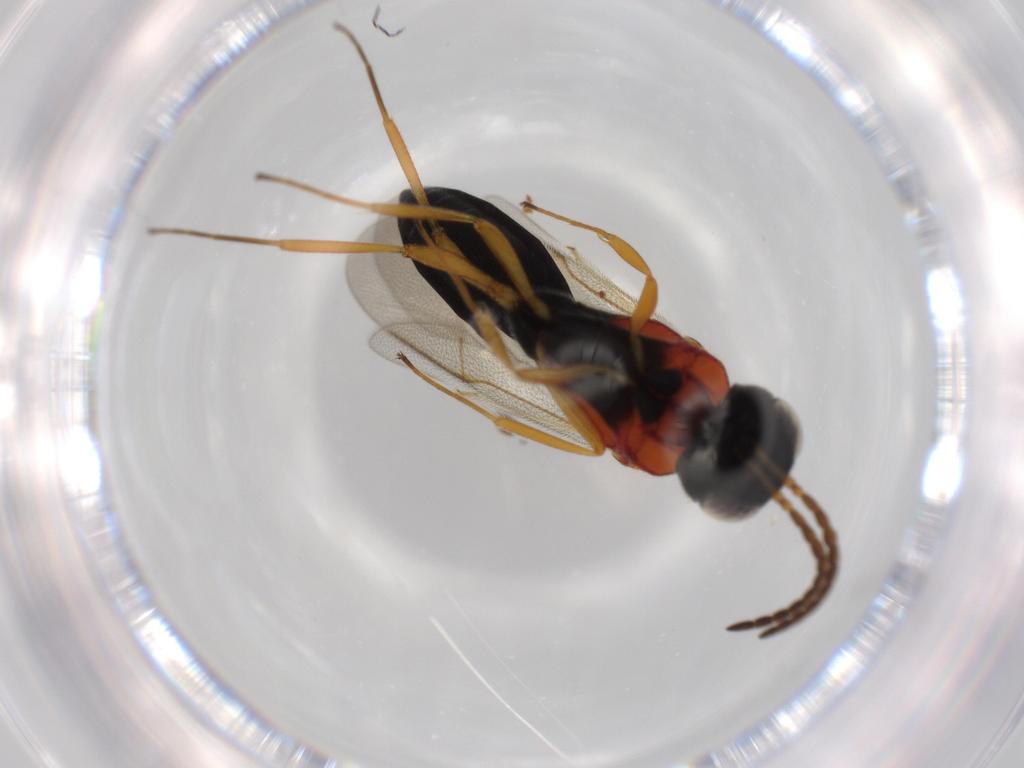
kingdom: Animalia
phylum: Arthropoda
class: Insecta
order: Hymenoptera
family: Scelionidae
